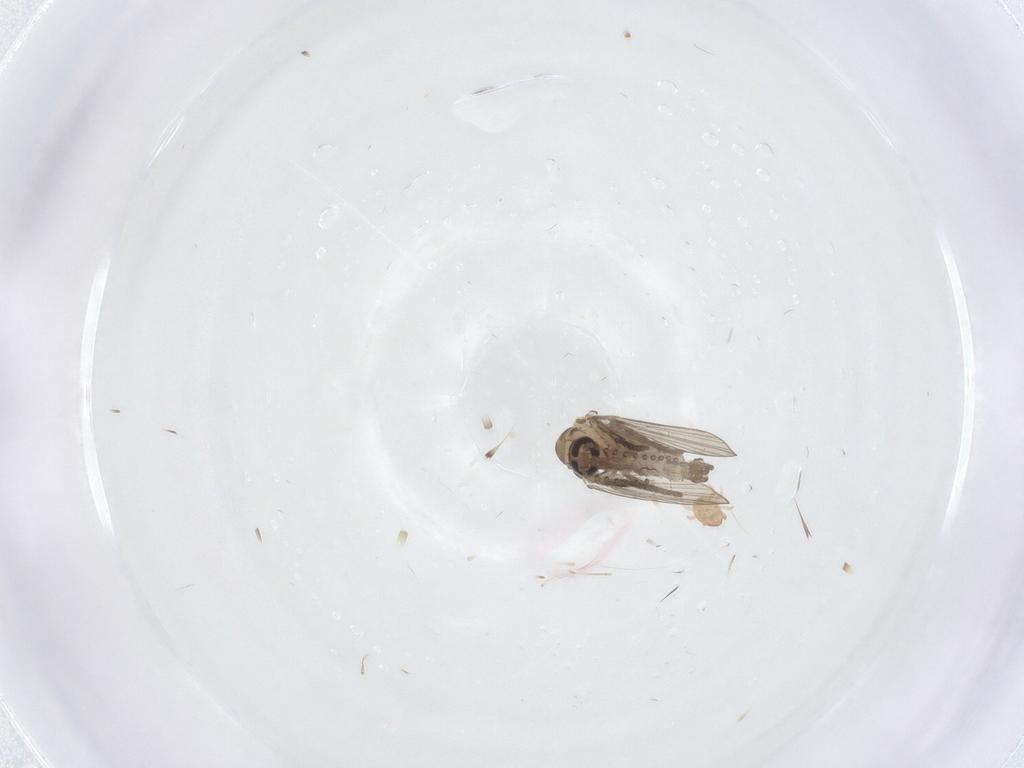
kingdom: Animalia
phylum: Arthropoda
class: Insecta
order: Diptera
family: Psychodidae
